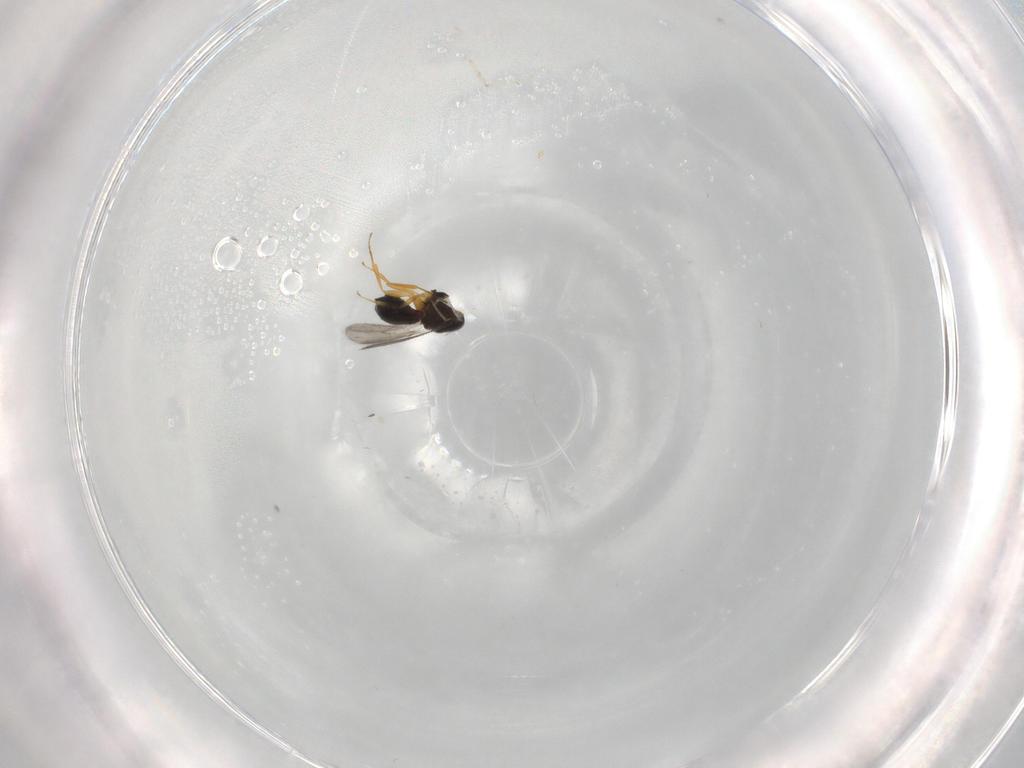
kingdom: Animalia
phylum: Arthropoda
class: Insecta
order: Hymenoptera
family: Scelionidae
